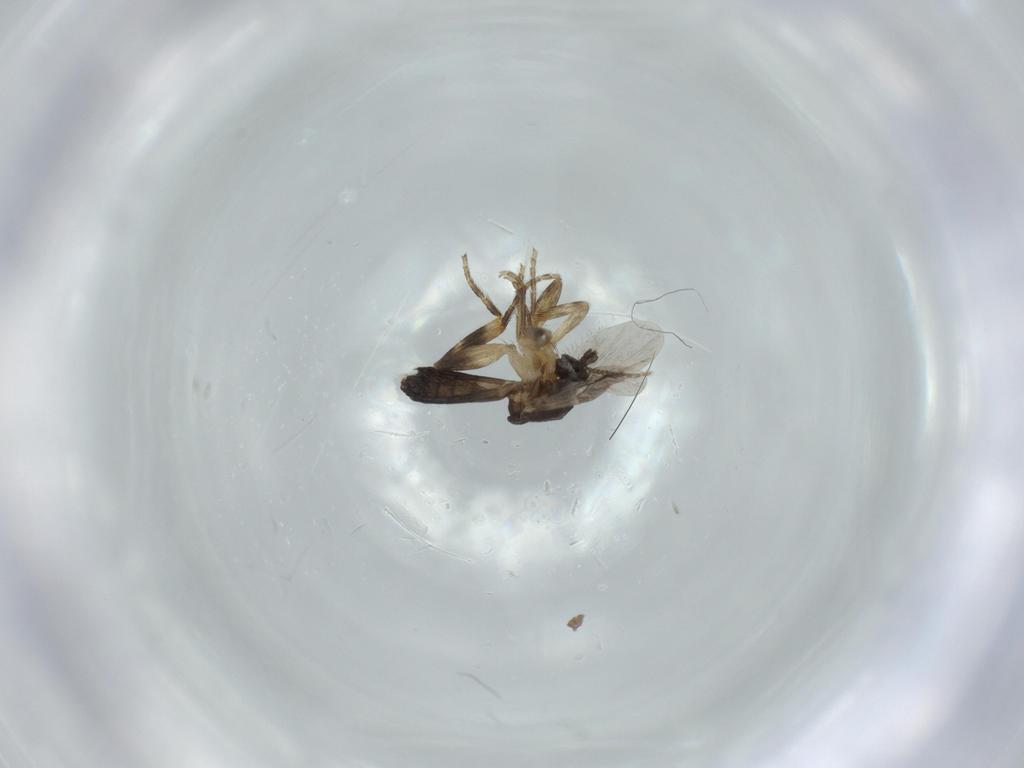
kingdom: Animalia
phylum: Arthropoda
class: Insecta
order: Diptera
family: Ceratopogonidae
